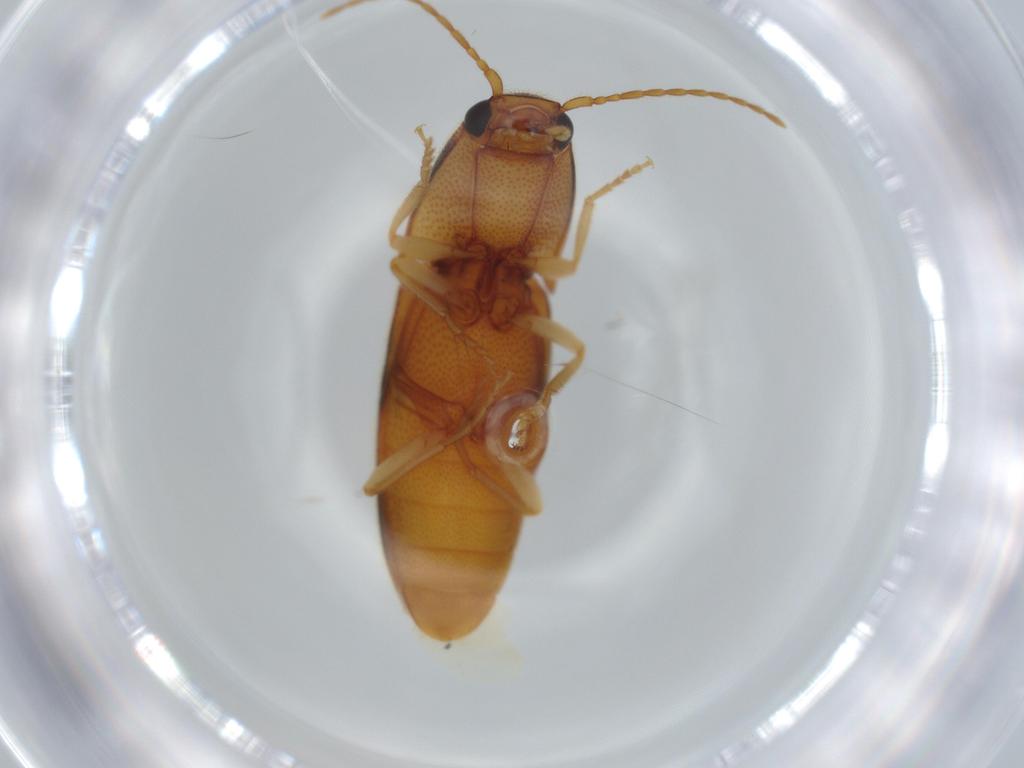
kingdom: Animalia
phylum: Arthropoda
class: Insecta
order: Coleoptera
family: Elateridae
